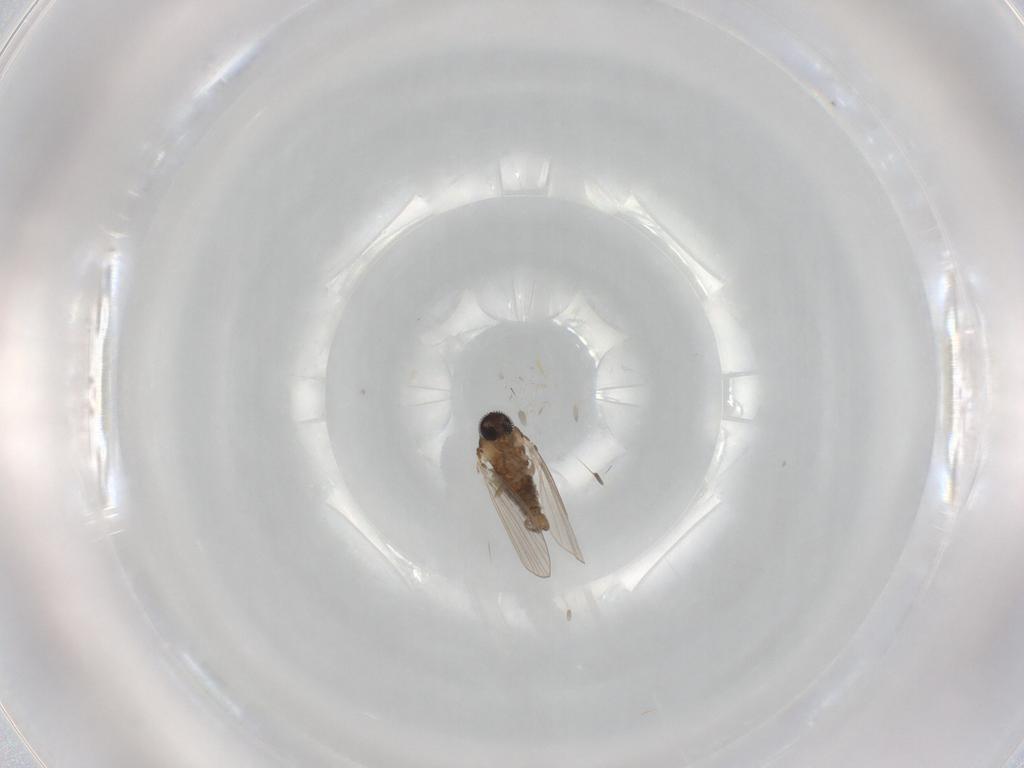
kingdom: Animalia
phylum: Arthropoda
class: Insecta
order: Diptera
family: Psychodidae
